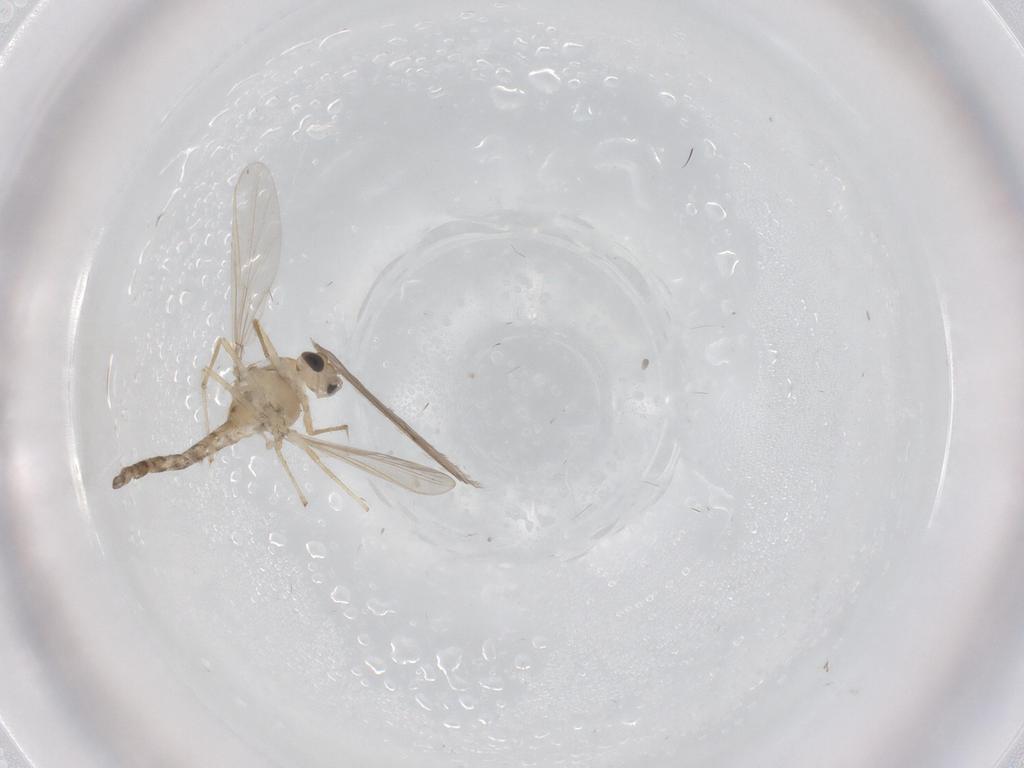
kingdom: Animalia
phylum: Arthropoda
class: Insecta
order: Diptera
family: Chironomidae
